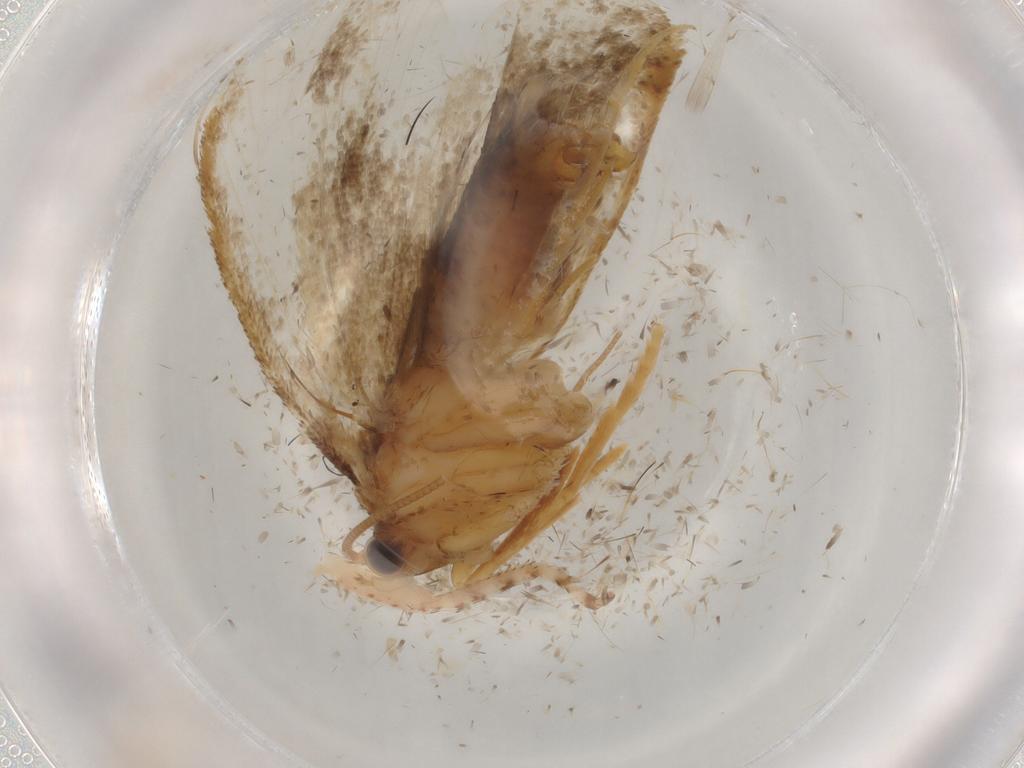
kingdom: Animalia
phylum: Arthropoda
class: Insecta
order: Lepidoptera
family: Nepticulidae
